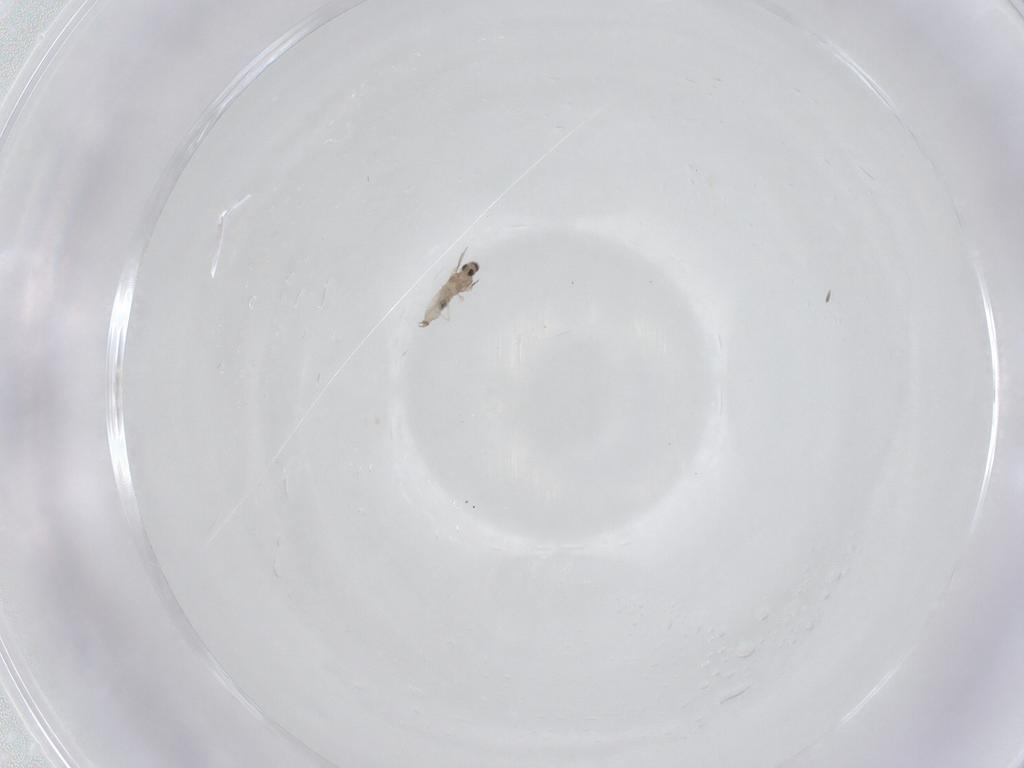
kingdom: Animalia
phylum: Arthropoda
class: Insecta
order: Diptera
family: Cecidomyiidae
